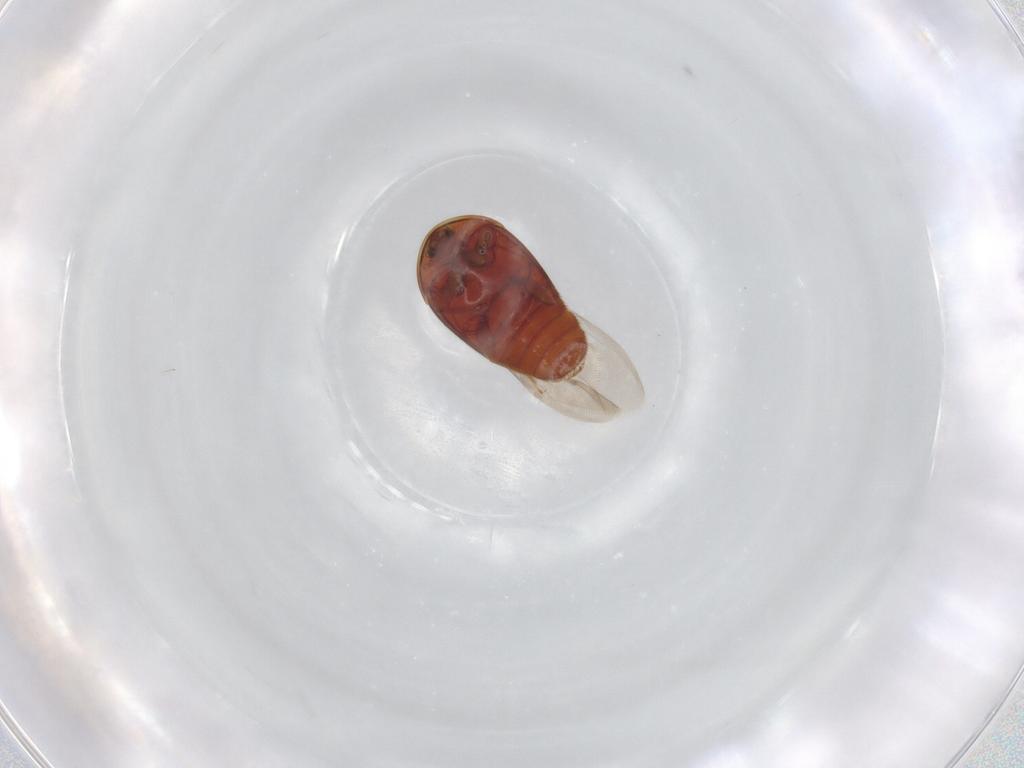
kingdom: Animalia
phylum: Arthropoda
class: Insecta
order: Coleoptera
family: Corylophidae
